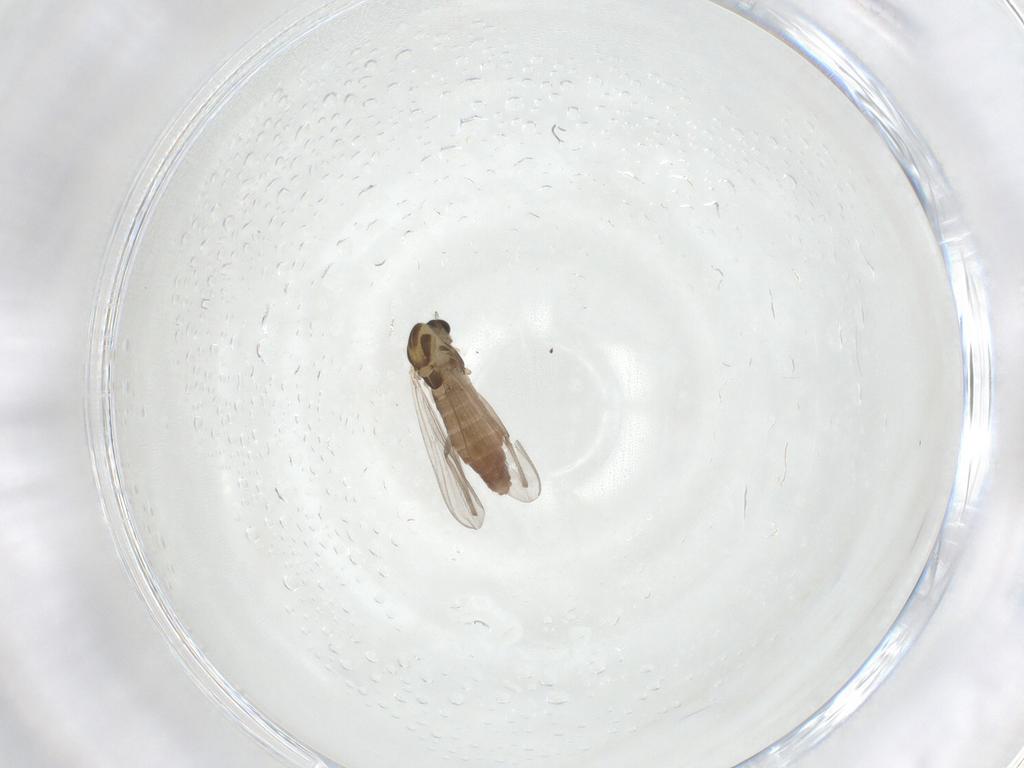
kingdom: Animalia
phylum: Arthropoda
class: Insecta
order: Diptera
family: Chironomidae
